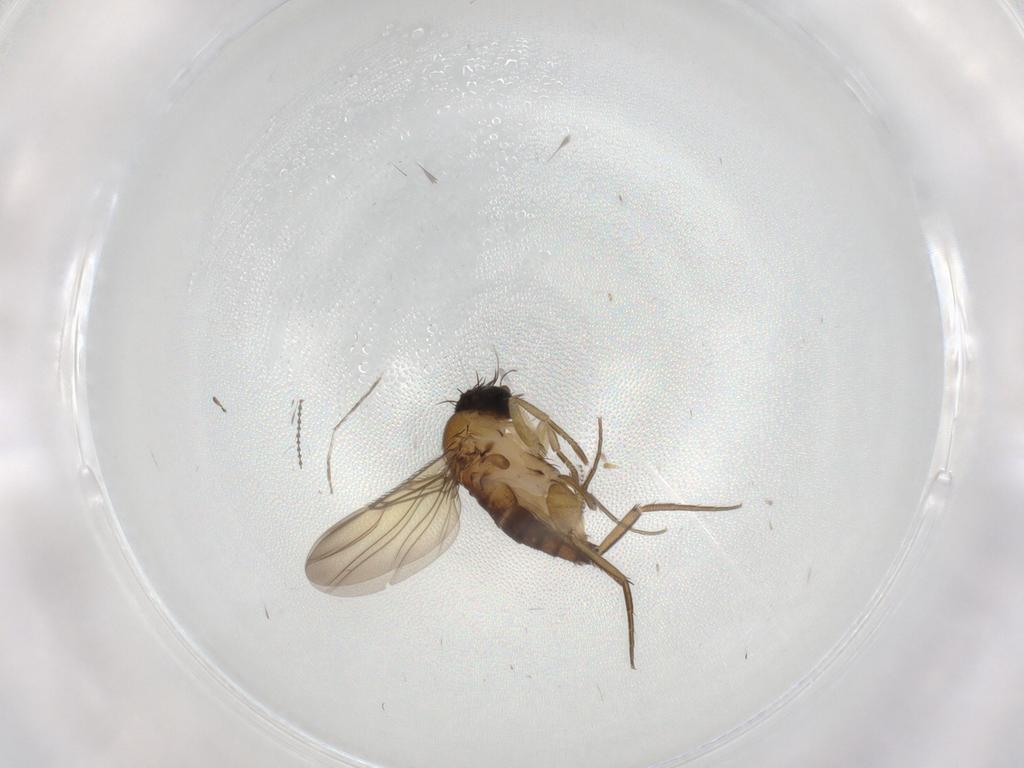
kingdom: Animalia
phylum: Arthropoda
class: Insecta
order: Diptera
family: Phoridae
